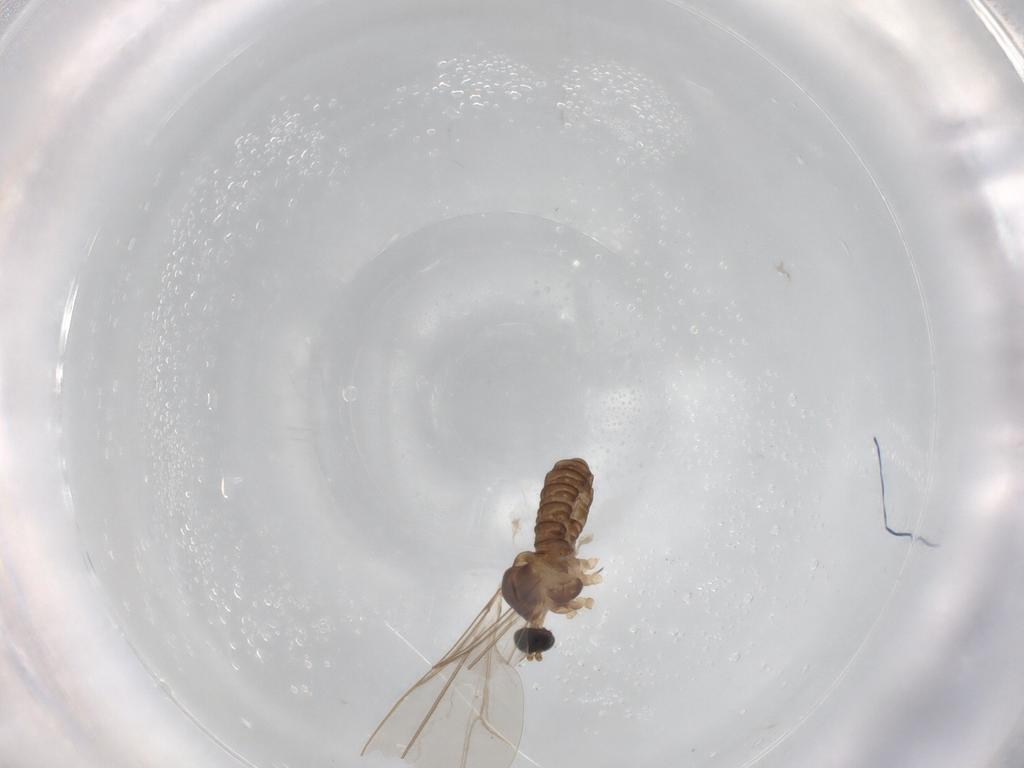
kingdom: Animalia
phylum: Arthropoda
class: Insecta
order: Diptera
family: Cecidomyiidae
